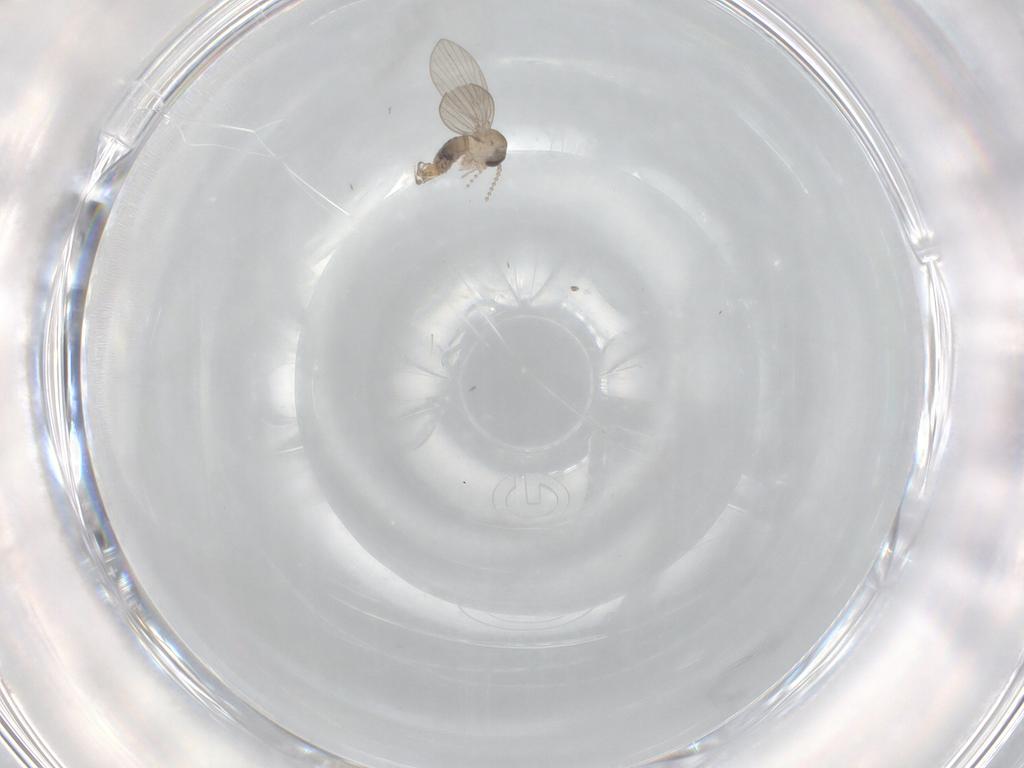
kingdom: Animalia
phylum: Arthropoda
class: Insecta
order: Diptera
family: Psychodidae
